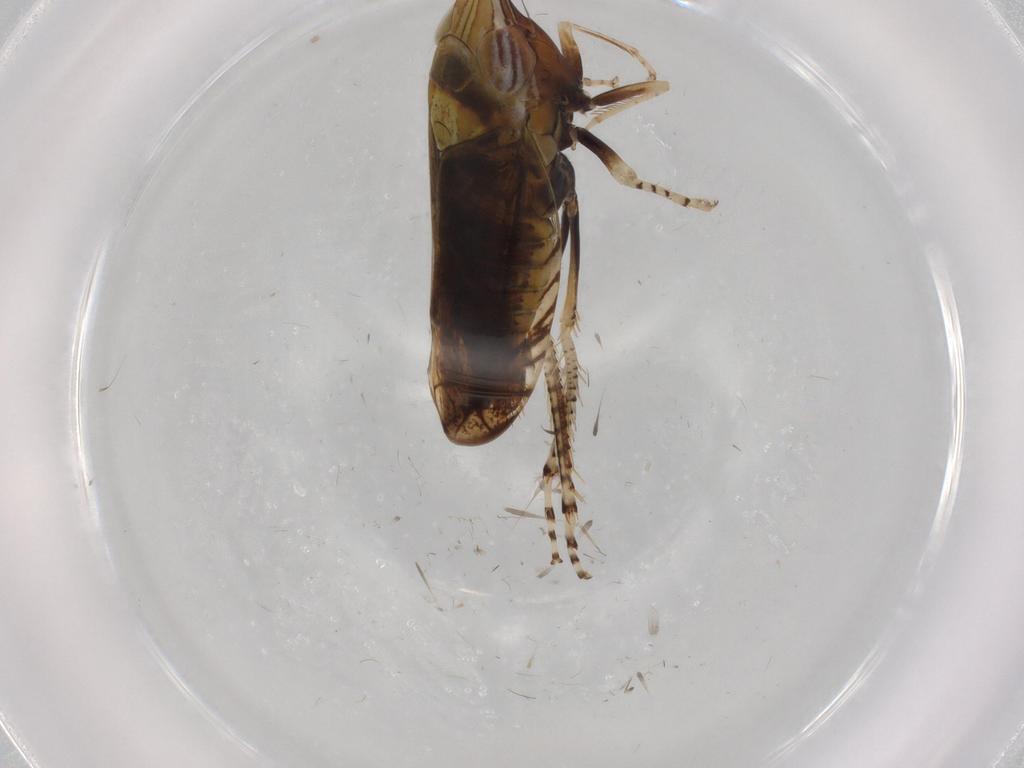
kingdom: Animalia
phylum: Arthropoda
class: Insecta
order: Hemiptera
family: Cicadellidae
